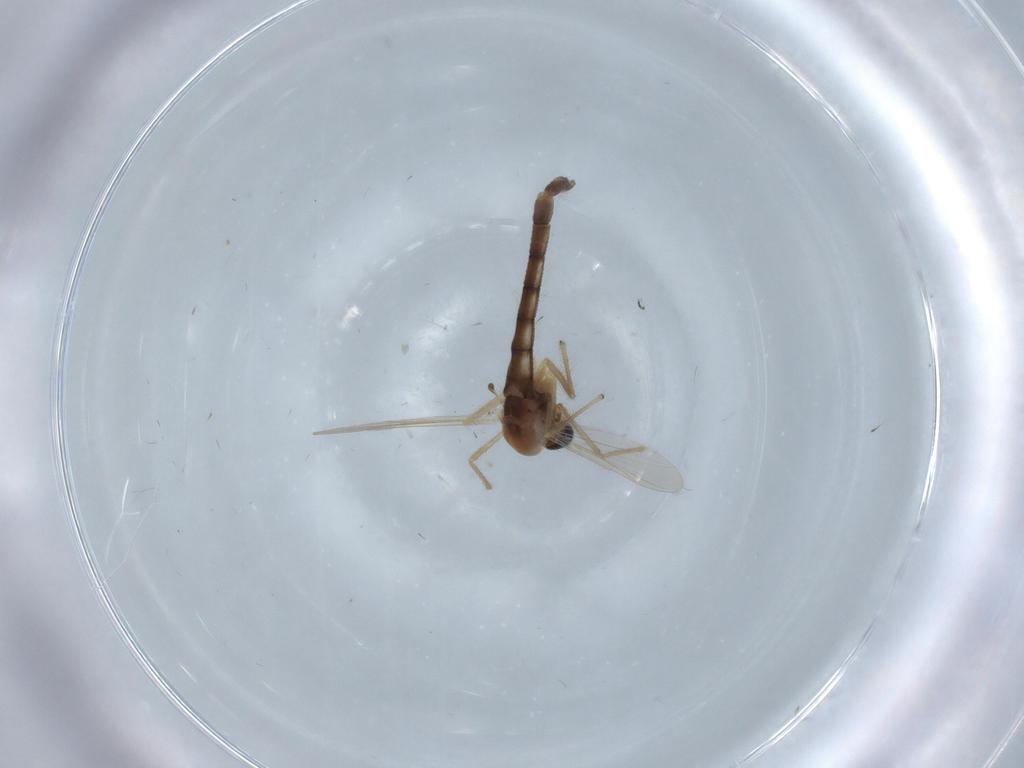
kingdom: Animalia
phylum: Arthropoda
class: Insecta
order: Diptera
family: Chironomidae
